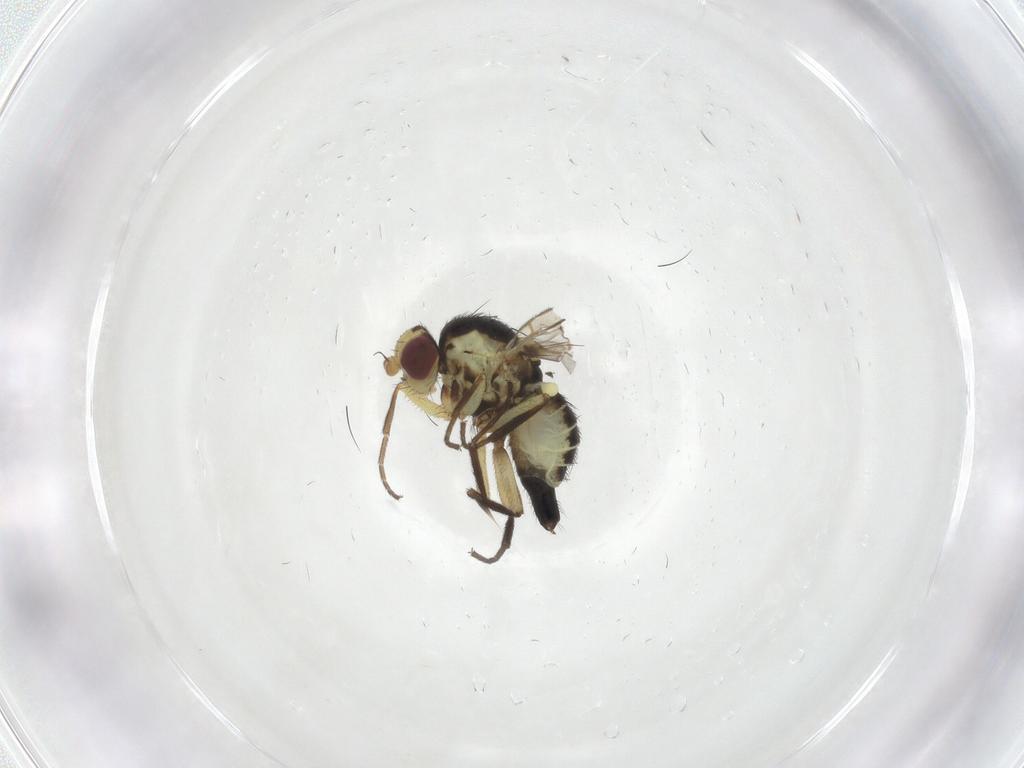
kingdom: Animalia
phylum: Arthropoda
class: Insecta
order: Diptera
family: Agromyzidae
